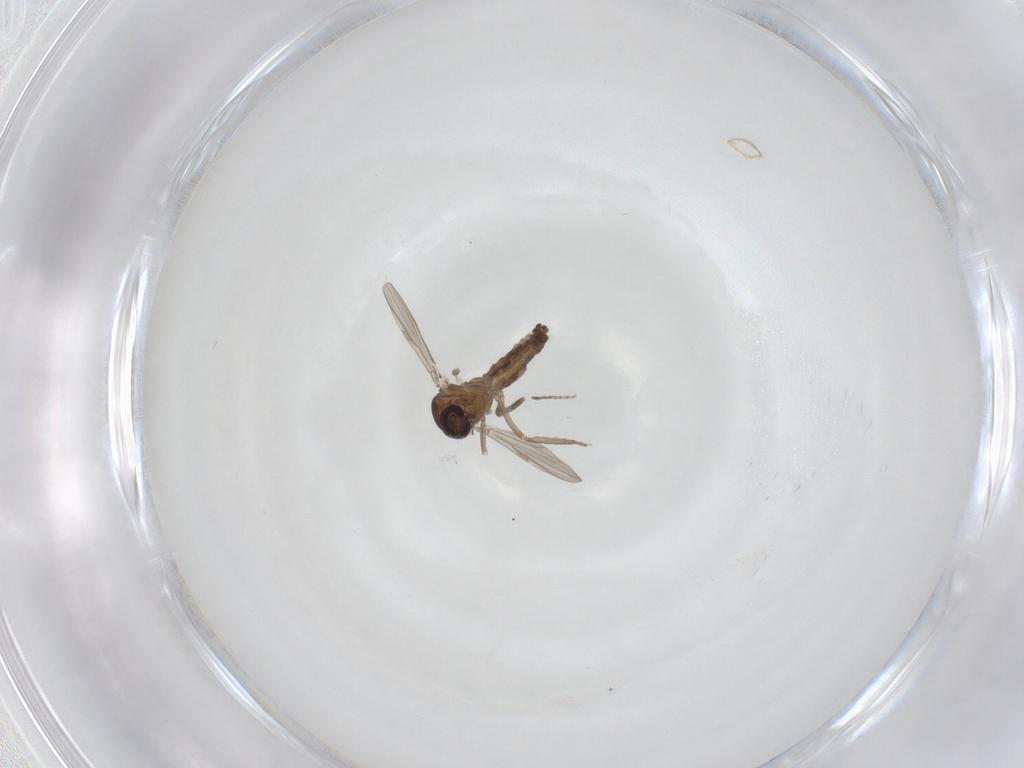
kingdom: Animalia
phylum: Arthropoda
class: Insecta
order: Diptera
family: Ceratopogonidae
